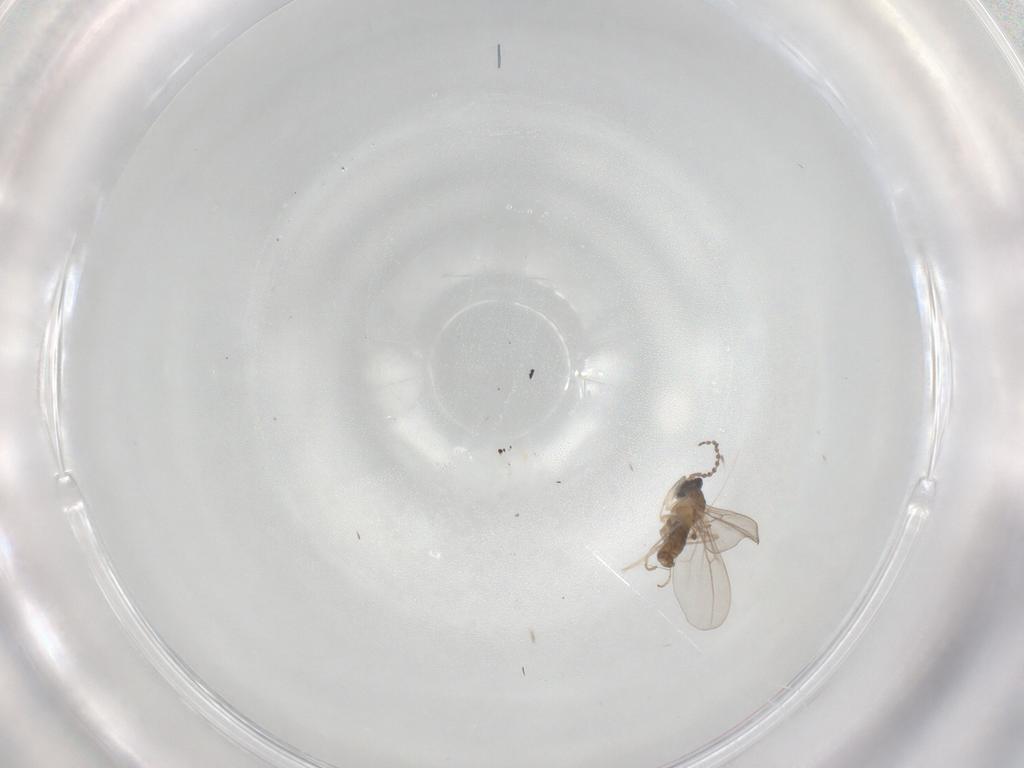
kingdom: Animalia
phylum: Arthropoda
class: Insecta
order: Diptera
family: Cecidomyiidae
